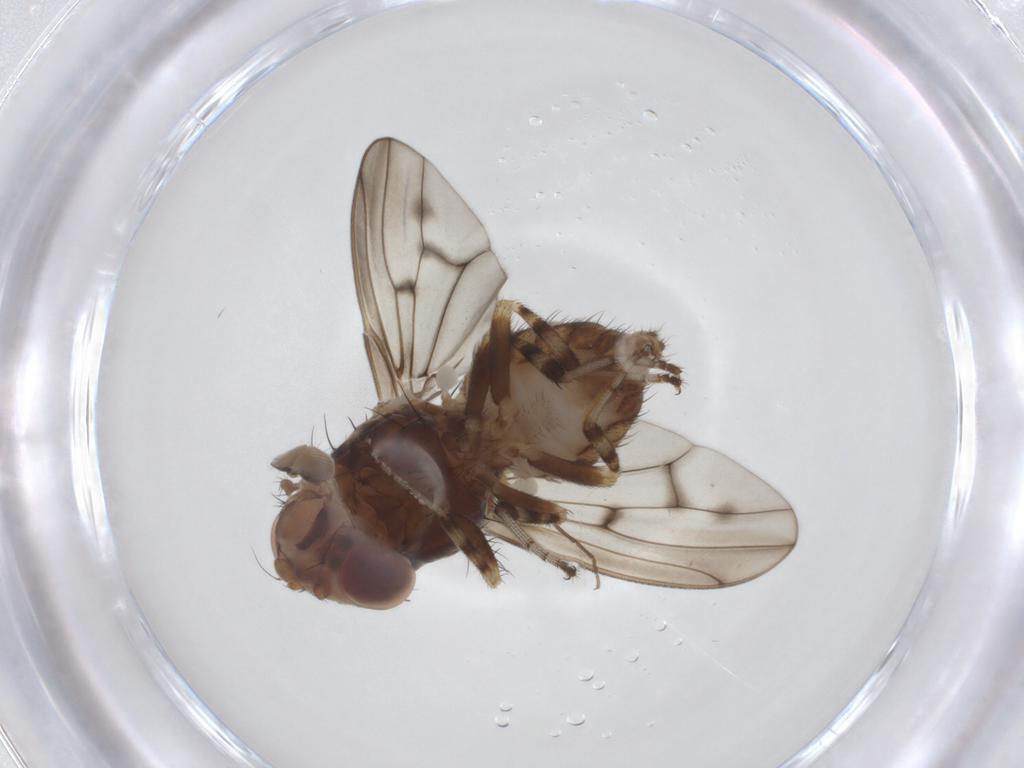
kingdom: Animalia
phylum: Arthropoda
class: Insecta
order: Diptera
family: Drosophilidae
